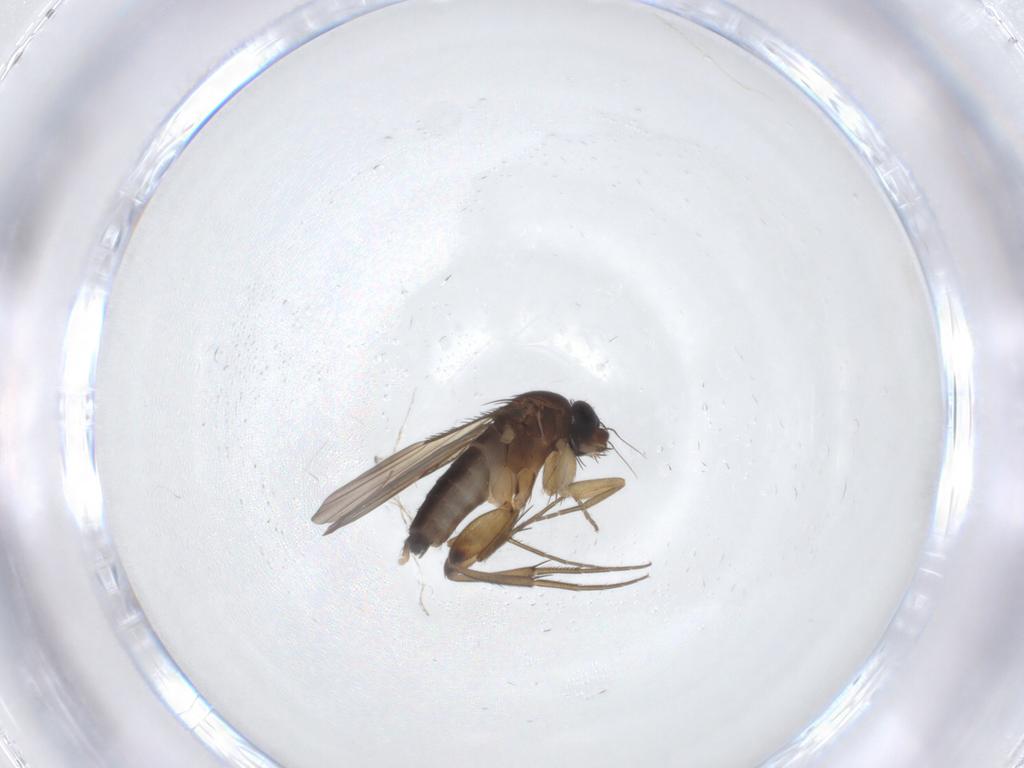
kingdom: Animalia
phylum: Arthropoda
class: Insecta
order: Diptera
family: Phoridae
